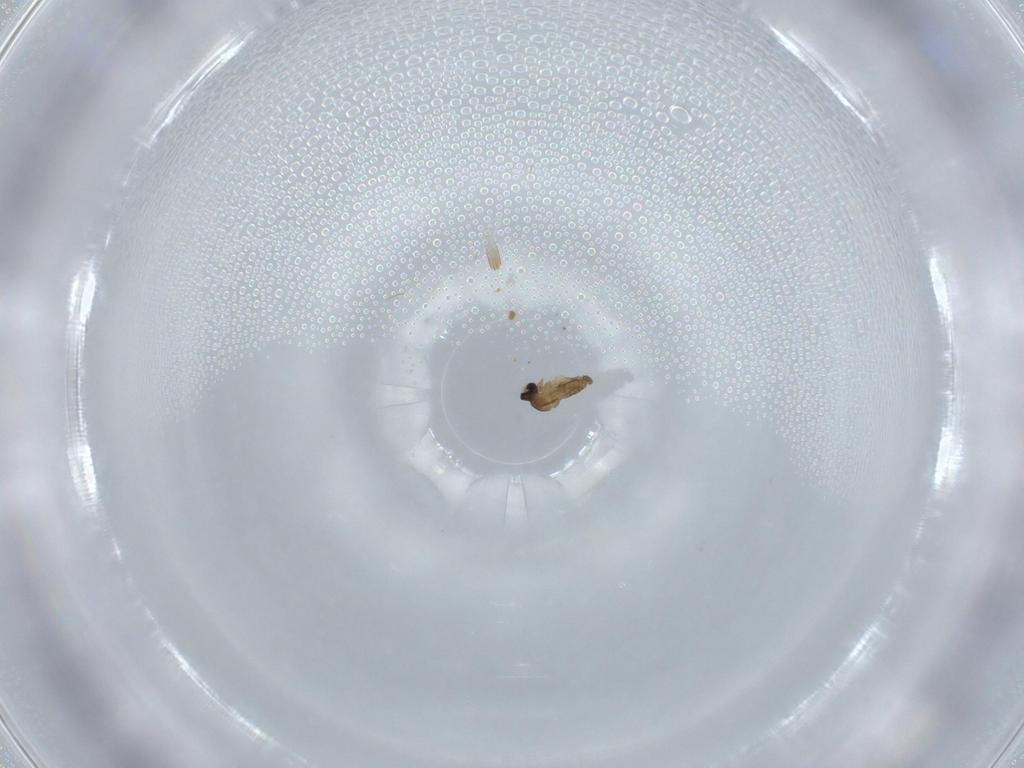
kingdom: Animalia
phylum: Arthropoda
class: Insecta
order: Diptera
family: Cecidomyiidae
